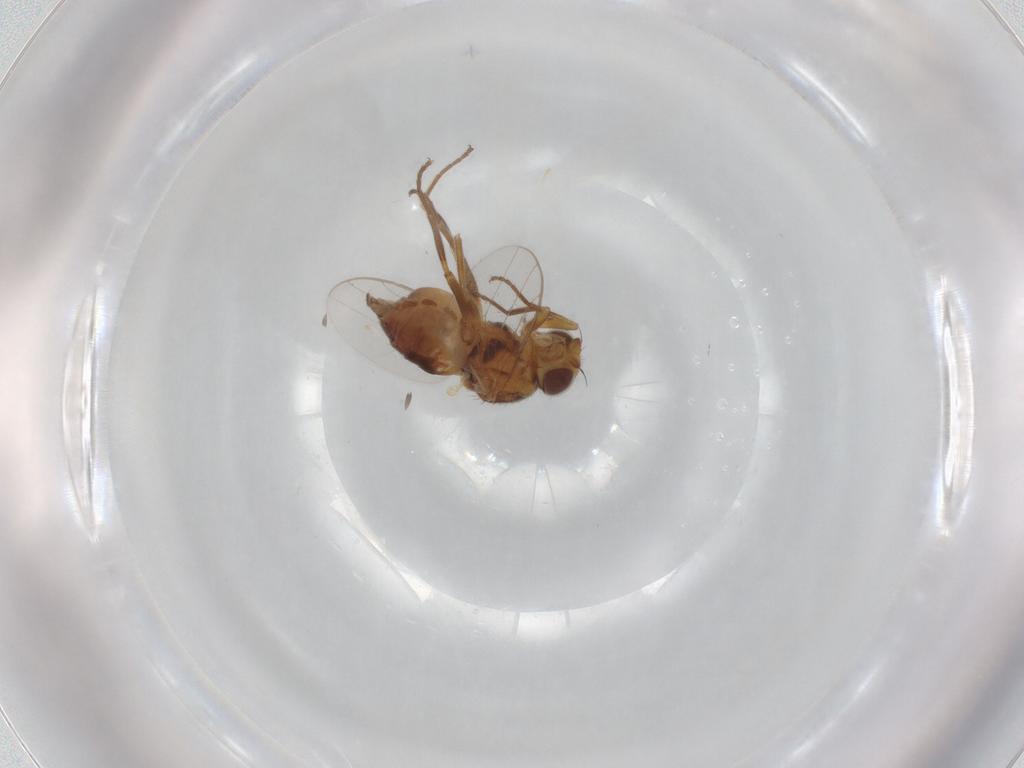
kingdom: Animalia
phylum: Arthropoda
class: Insecta
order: Diptera
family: Chloropidae
